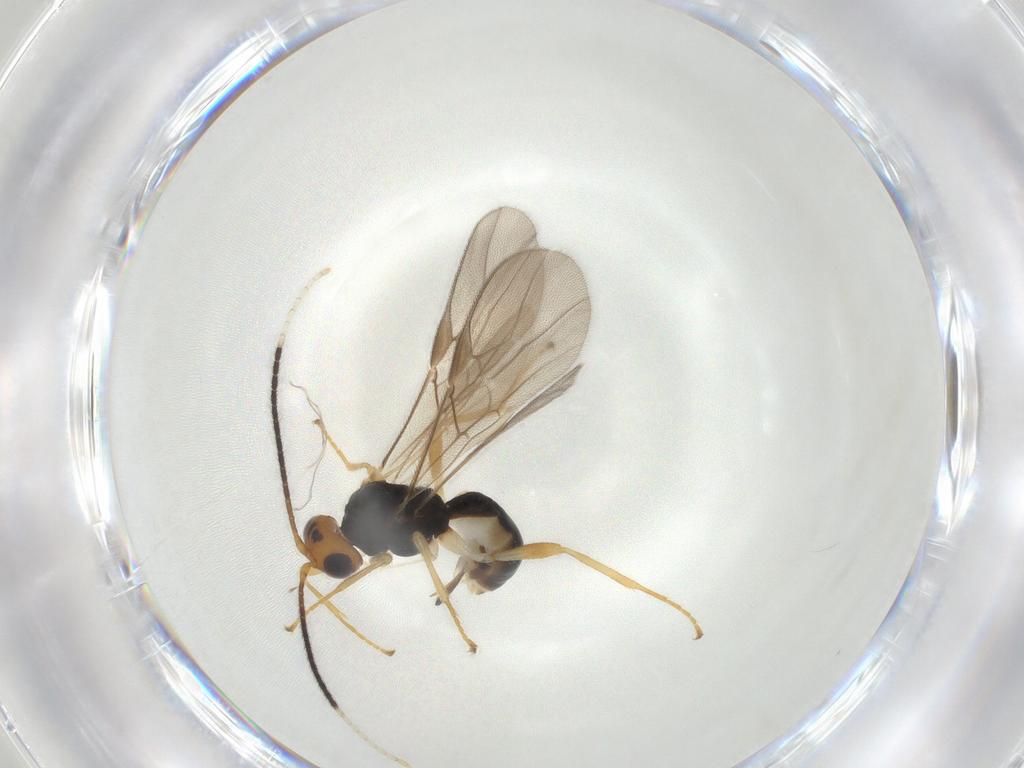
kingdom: Animalia
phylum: Arthropoda
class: Insecta
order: Hymenoptera
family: Braconidae
